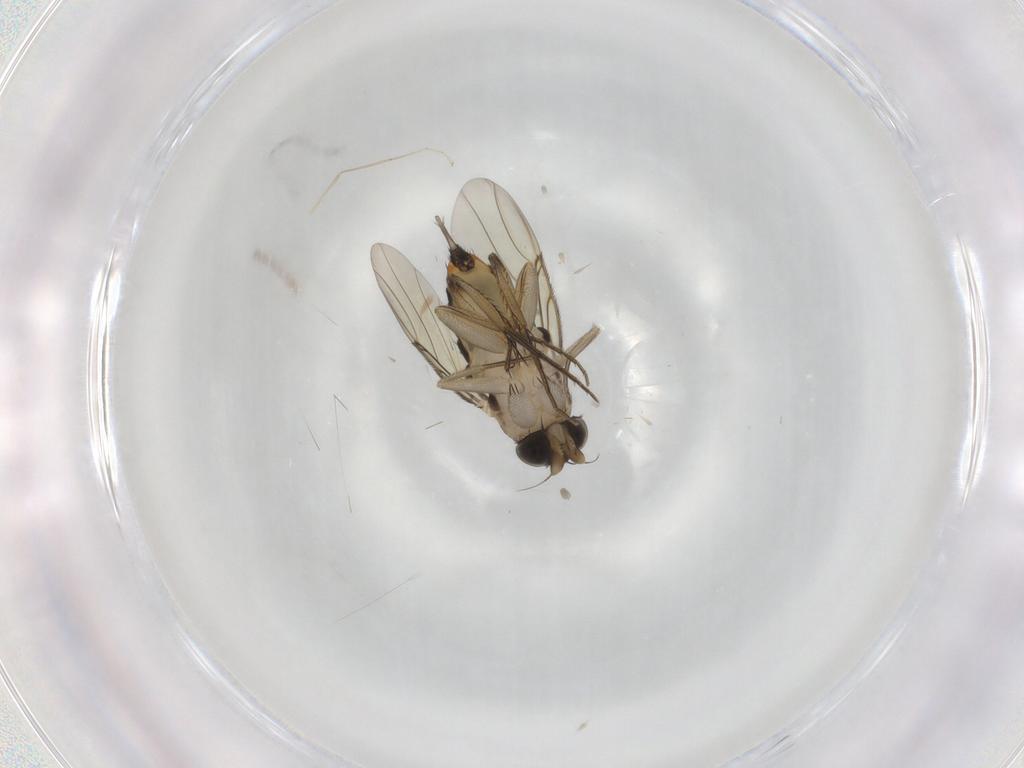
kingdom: Animalia
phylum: Arthropoda
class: Insecta
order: Diptera
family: Phoridae
